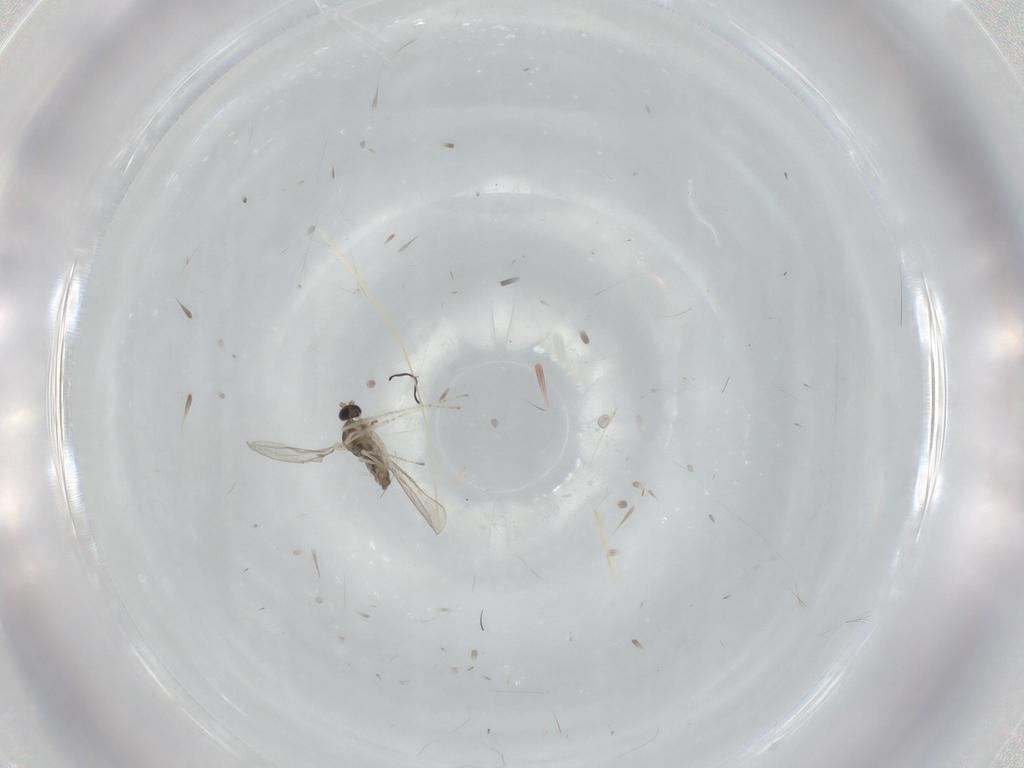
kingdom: Animalia
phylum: Arthropoda
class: Insecta
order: Diptera
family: Cecidomyiidae
